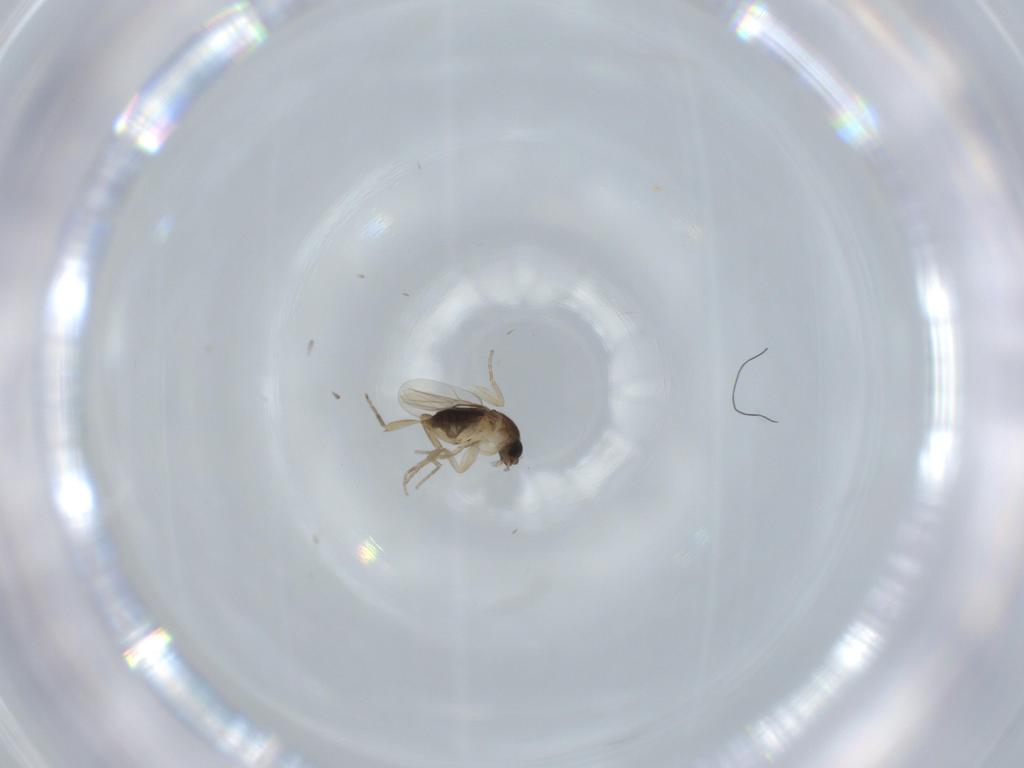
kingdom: Animalia
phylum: Arthropoda
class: Insecta
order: Diptera
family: Phoridae
